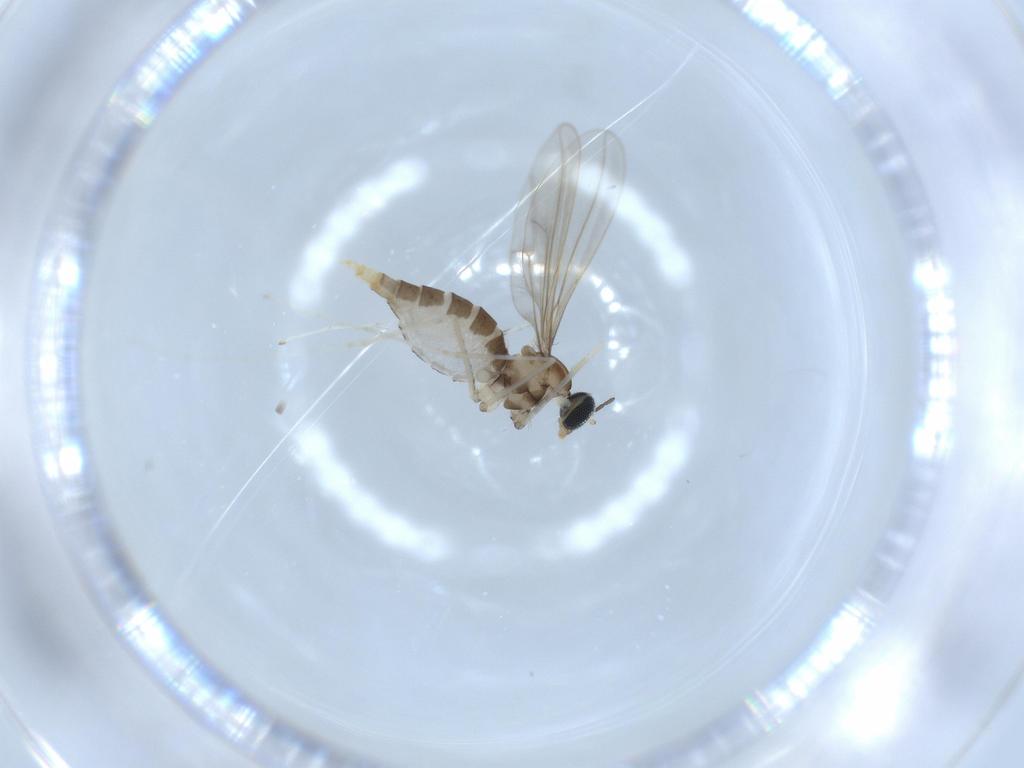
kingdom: Animalia
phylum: Arthropoda
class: Insecta
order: Diptera
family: Cecidomyiidae
